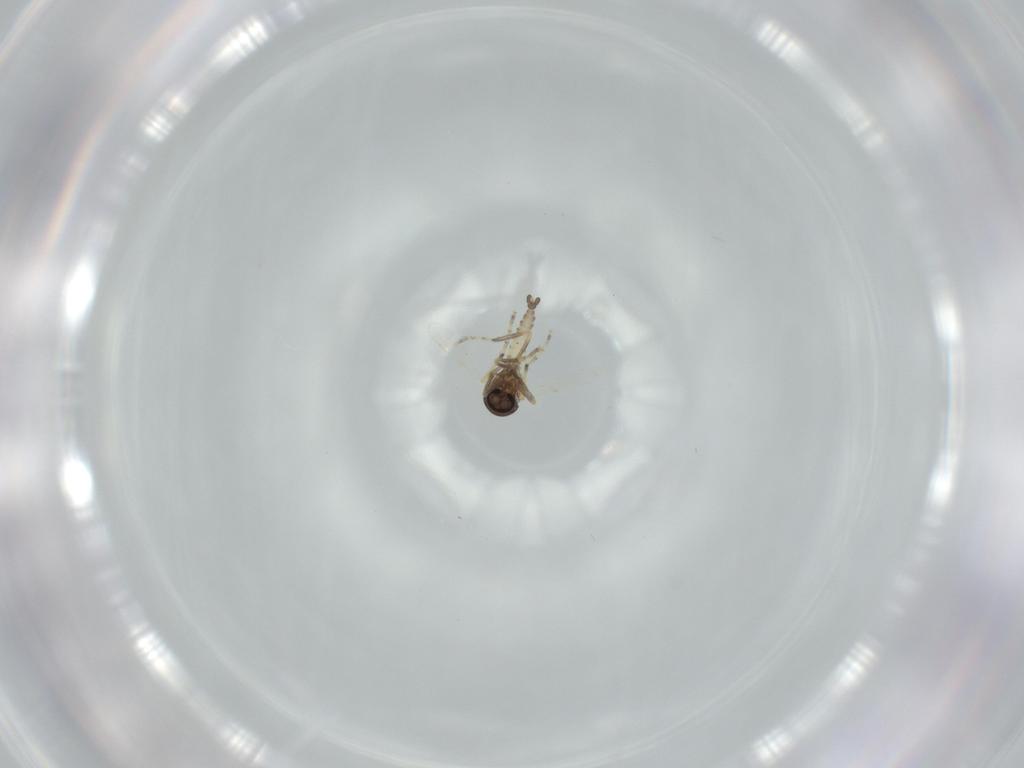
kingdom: Animalia
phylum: Arthropoda
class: Insecta
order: Diptera
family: Ceratopogonidae
